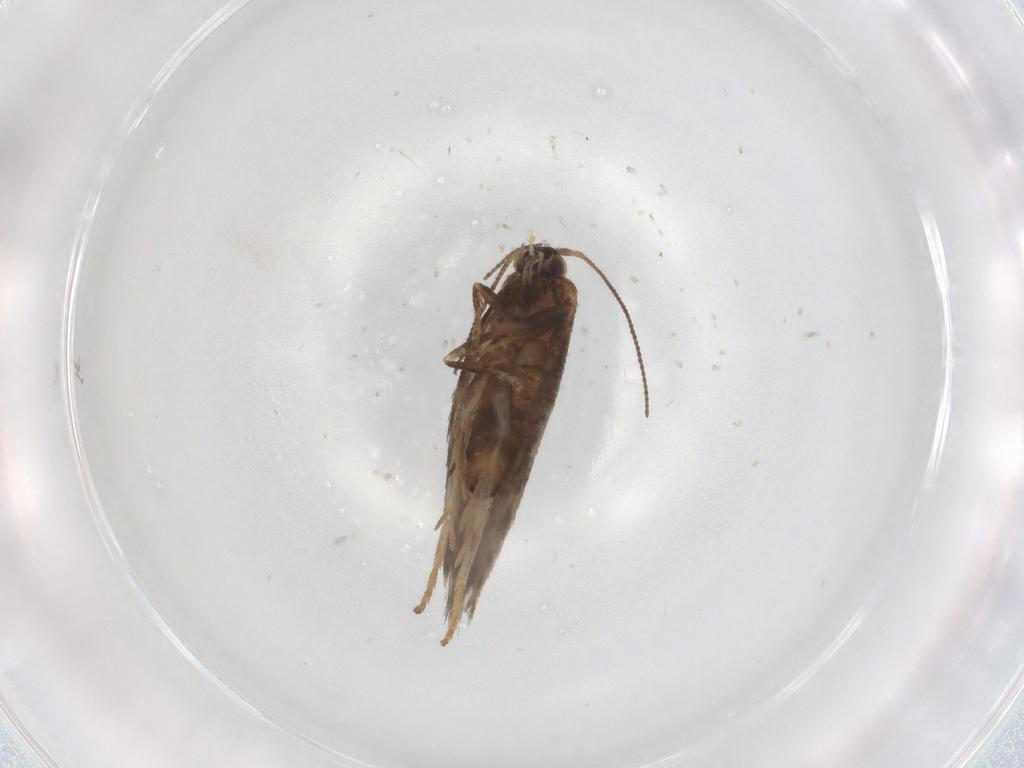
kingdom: Animalia
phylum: Arthropoda
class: Insecta
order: Lepidoptera
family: Nepticulidae
